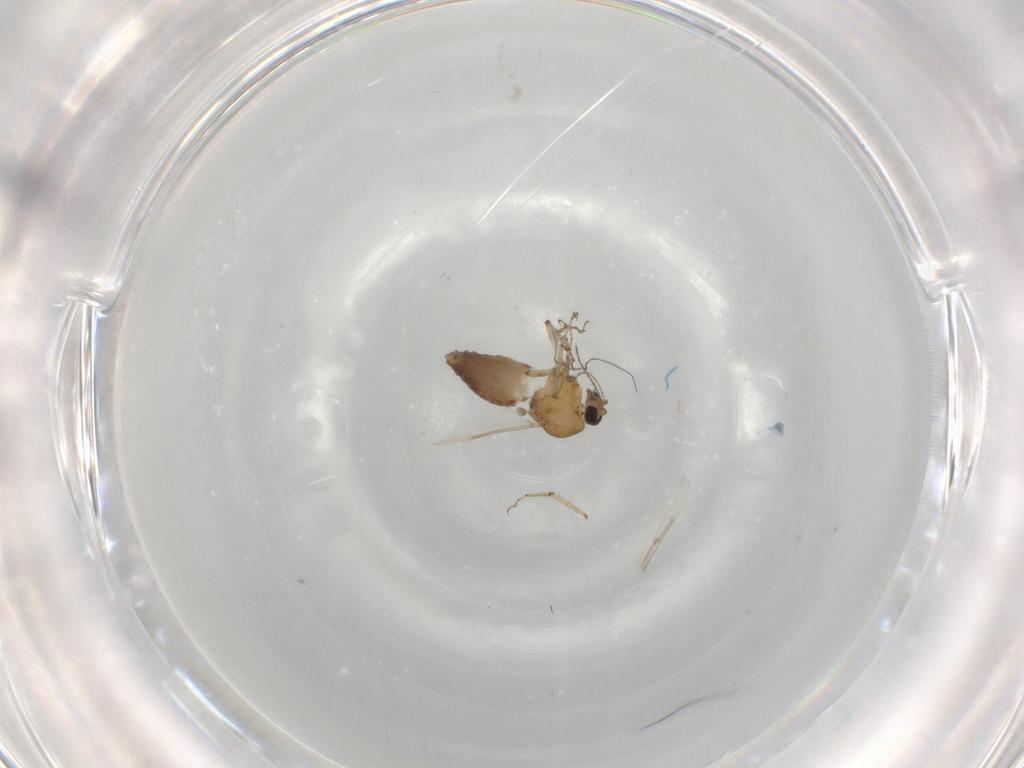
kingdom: Animalia
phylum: Arthropoda
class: Insecta
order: Diptera
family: Ceratopogonidae
